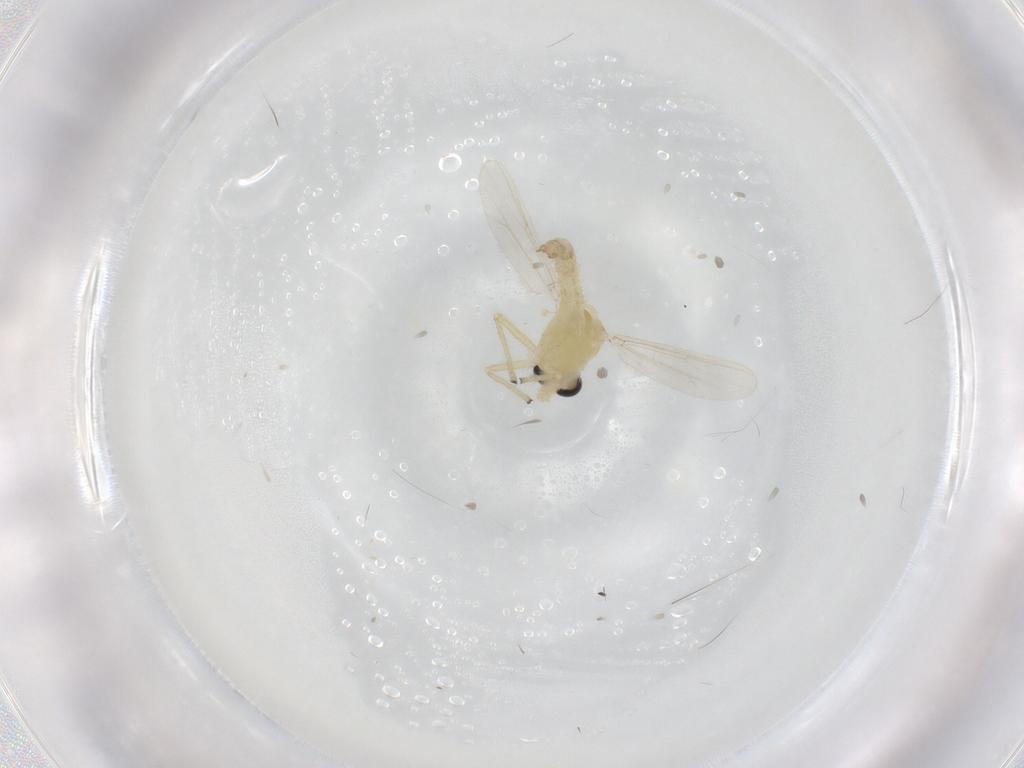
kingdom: Animalia
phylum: Arthropoda
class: Insecta
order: Diptera
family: Chironomidae
